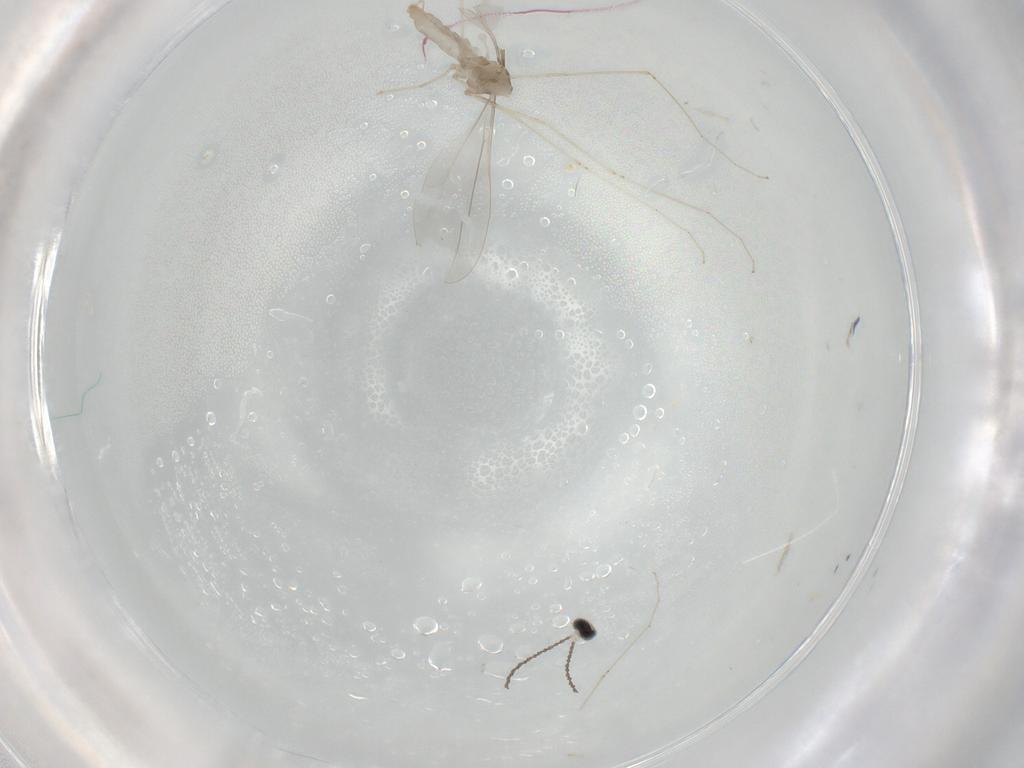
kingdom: Animalia
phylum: Arthropoda
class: Insecta
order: Diptera
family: Cecidomyiidae
